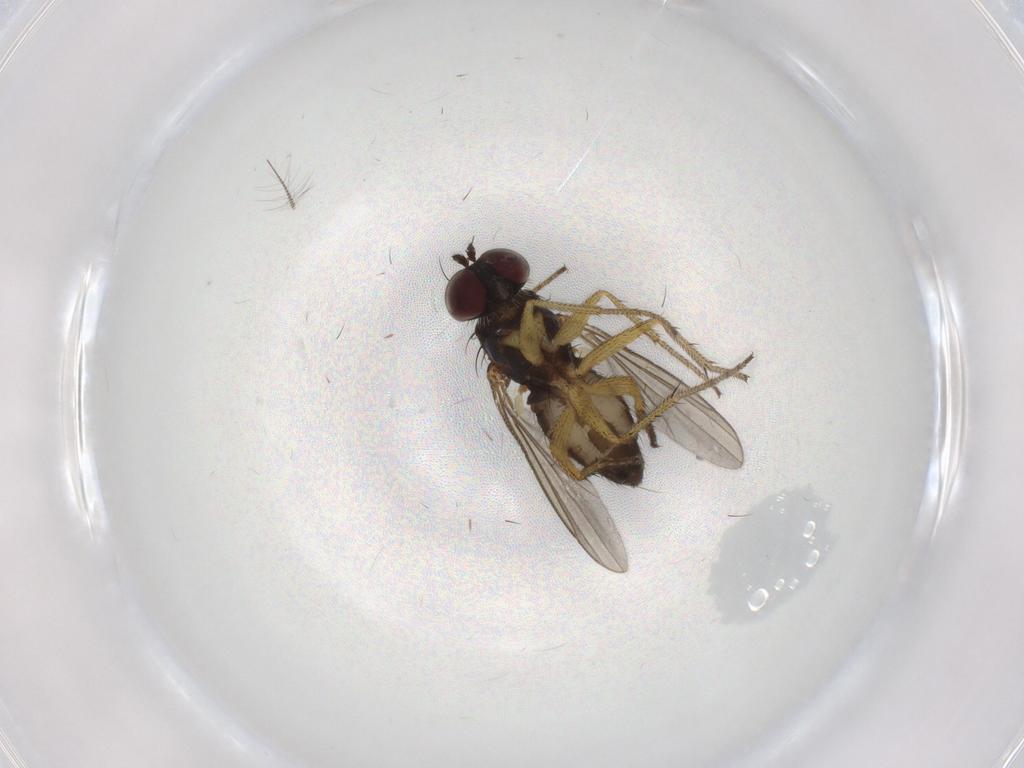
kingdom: Animalia
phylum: Arthropoda
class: Insecta
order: Diptera
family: Dolichopodidae
